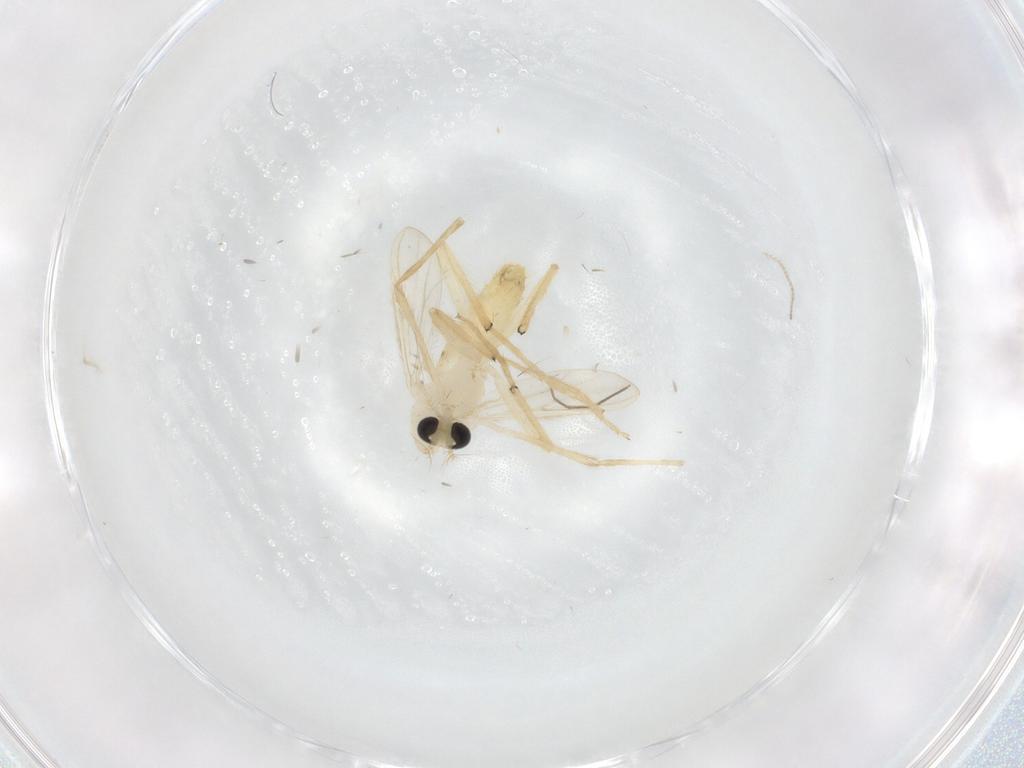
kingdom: Animalia
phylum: Arthropoda
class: Insecta
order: Diptera
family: Chironomidae
